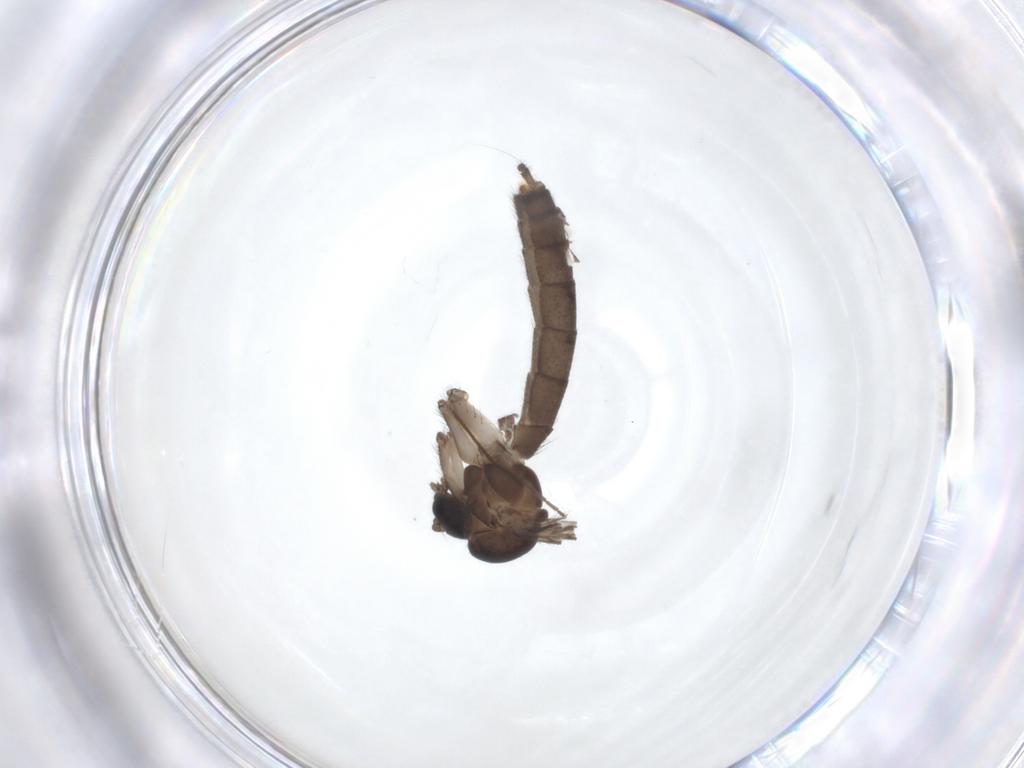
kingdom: Animalia
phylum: Arthropoda
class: Insecta
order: Diptera
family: Mycetophilidae
